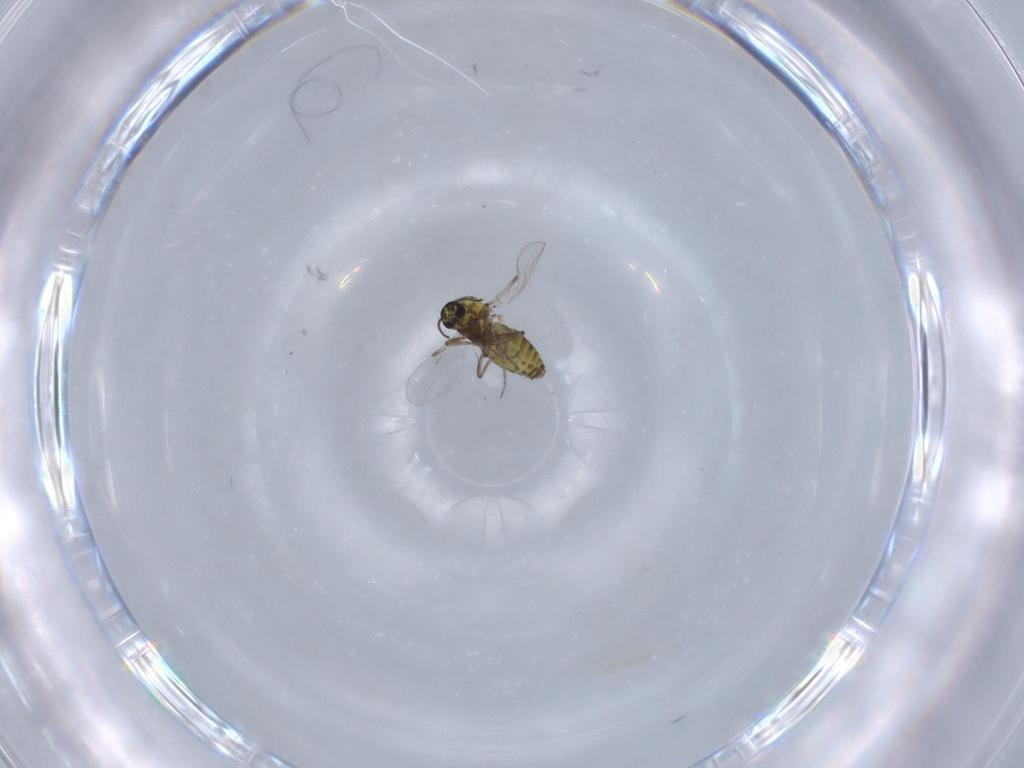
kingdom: Animalia
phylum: Arthropoda
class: Insecta
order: Diptera
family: Ceratopogonidae
